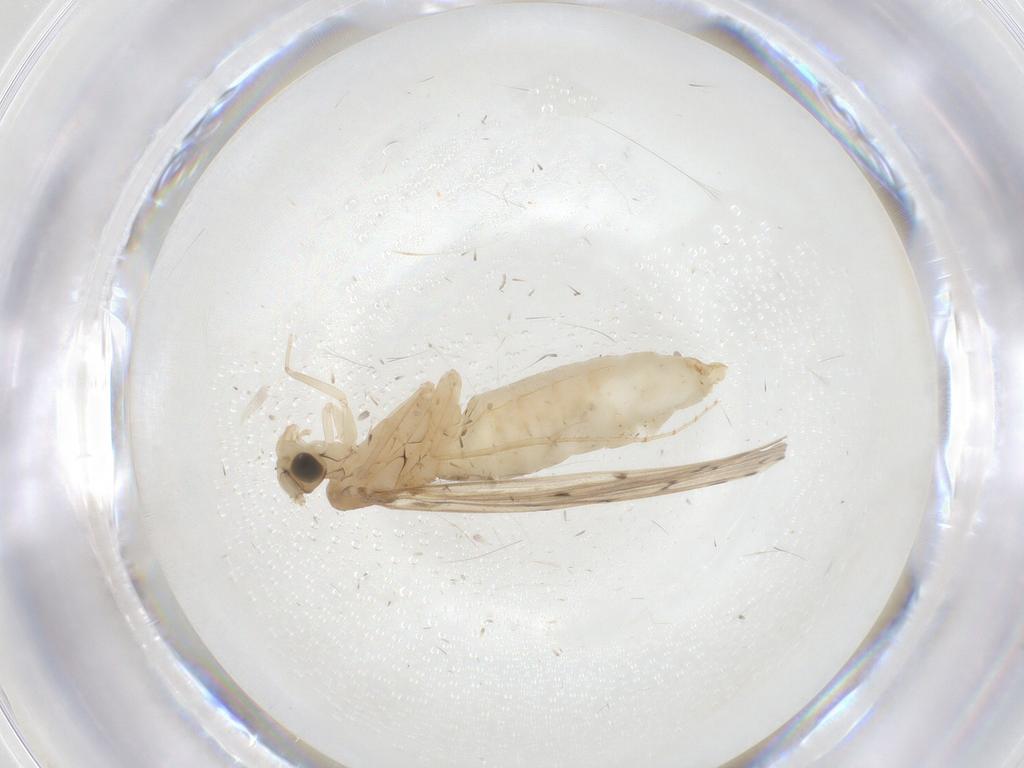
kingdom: Animalia
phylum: Arthropoda
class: Insecta
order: Trichoptera
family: Leptoceridae
